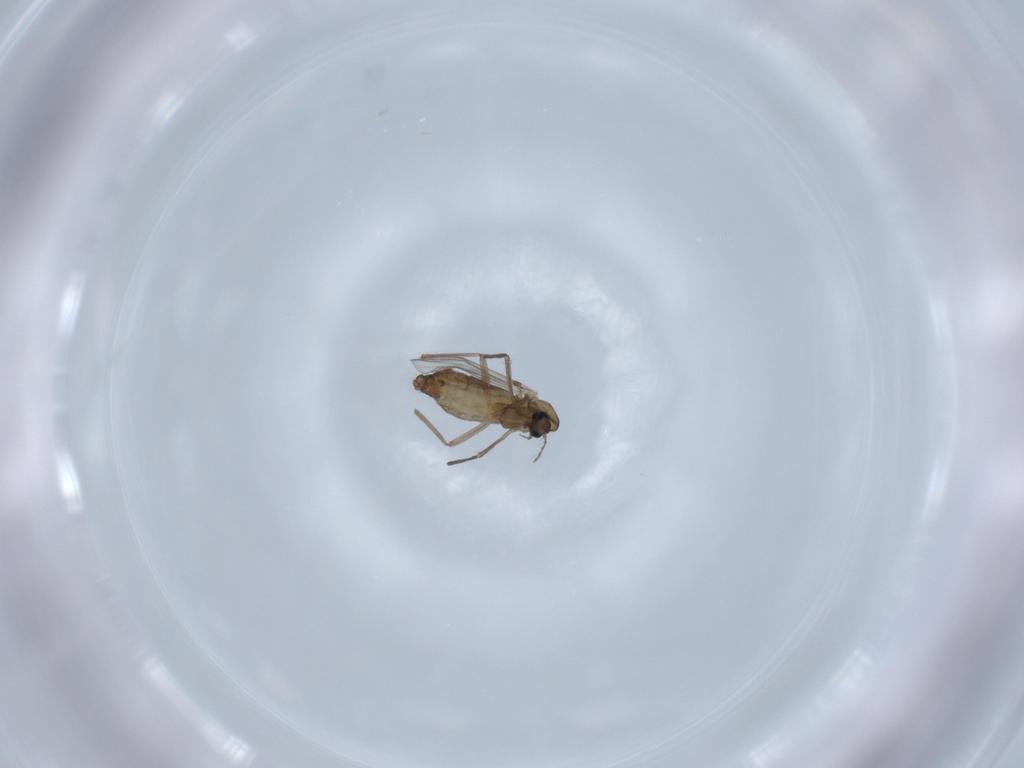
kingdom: Animalia
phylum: Arthropoda
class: Insecta
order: Diptera
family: Chironomidae
